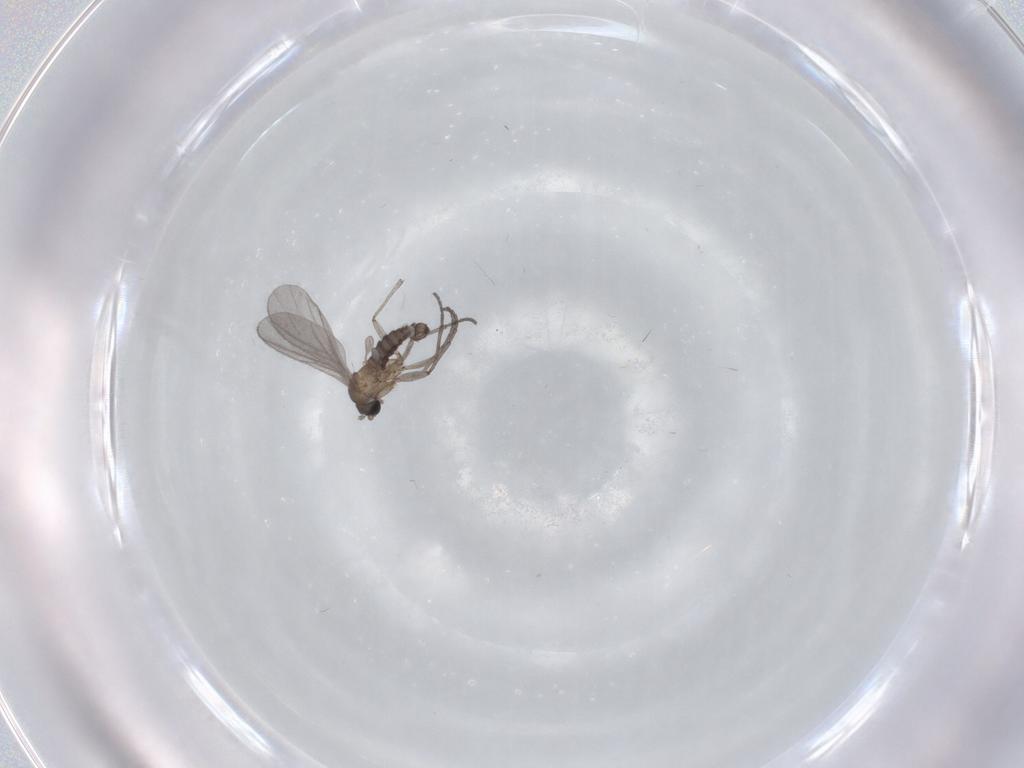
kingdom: Animalia
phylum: Arthropoda
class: Insecta
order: Diptera
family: Sciaridae
